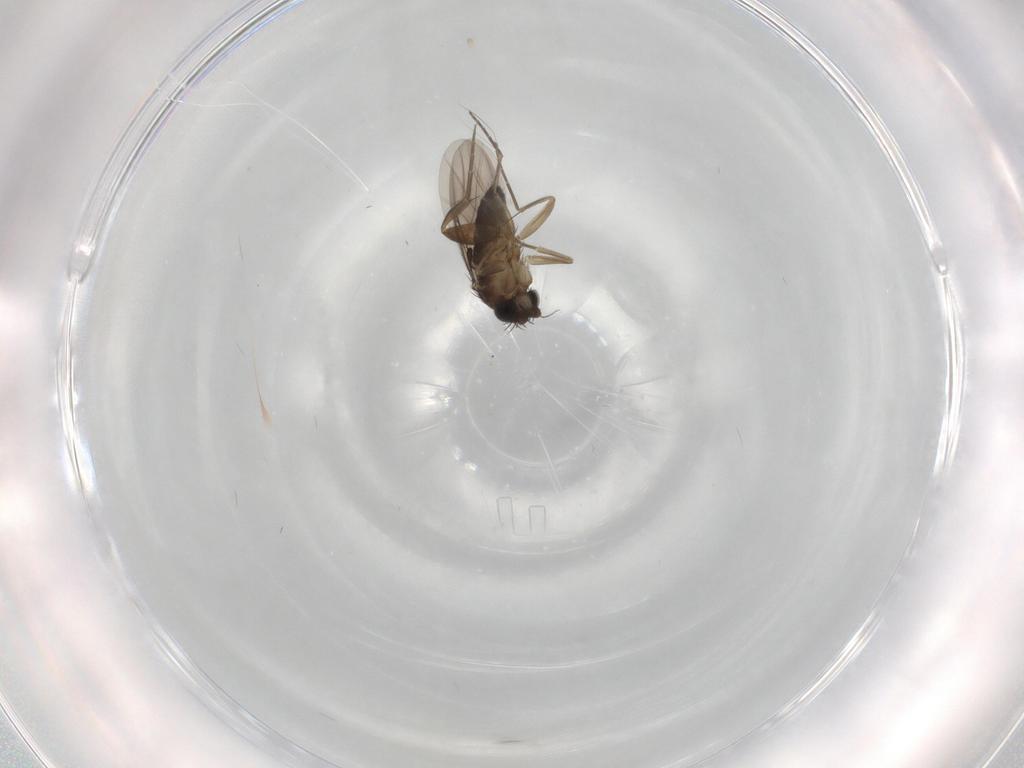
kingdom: Animalia
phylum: Arthropoda
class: Insecta
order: Diptera
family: Phoridae
